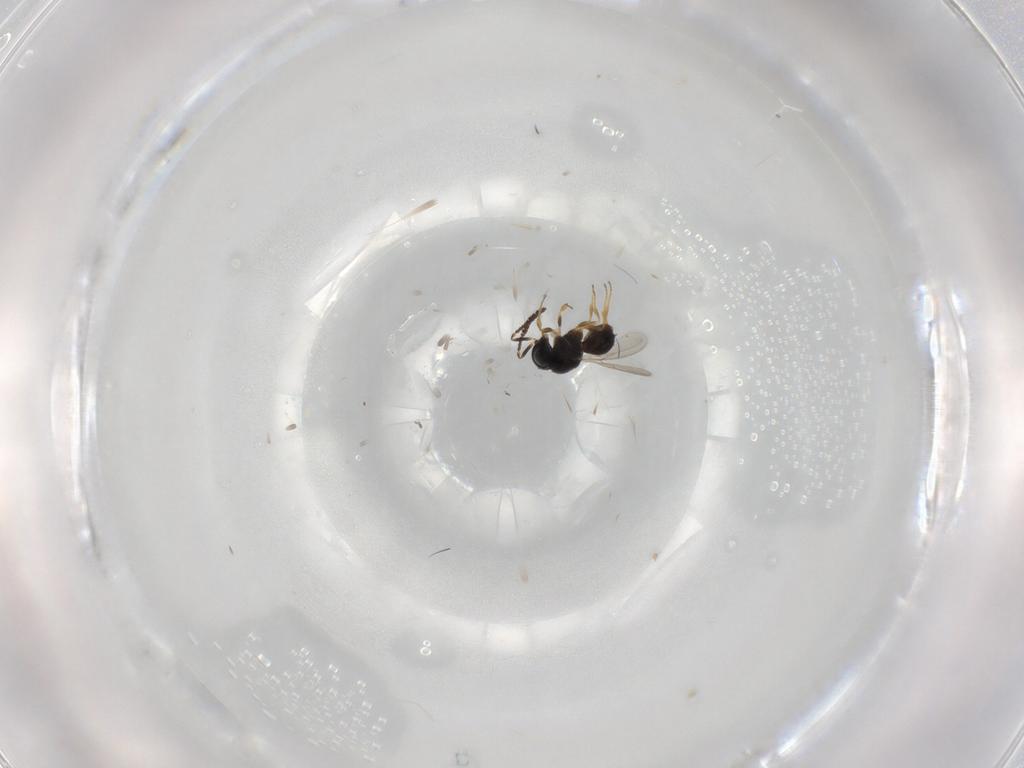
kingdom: Animalia
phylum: Arthropoda
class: Insecta
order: Hymenoptera
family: Scelionidae
